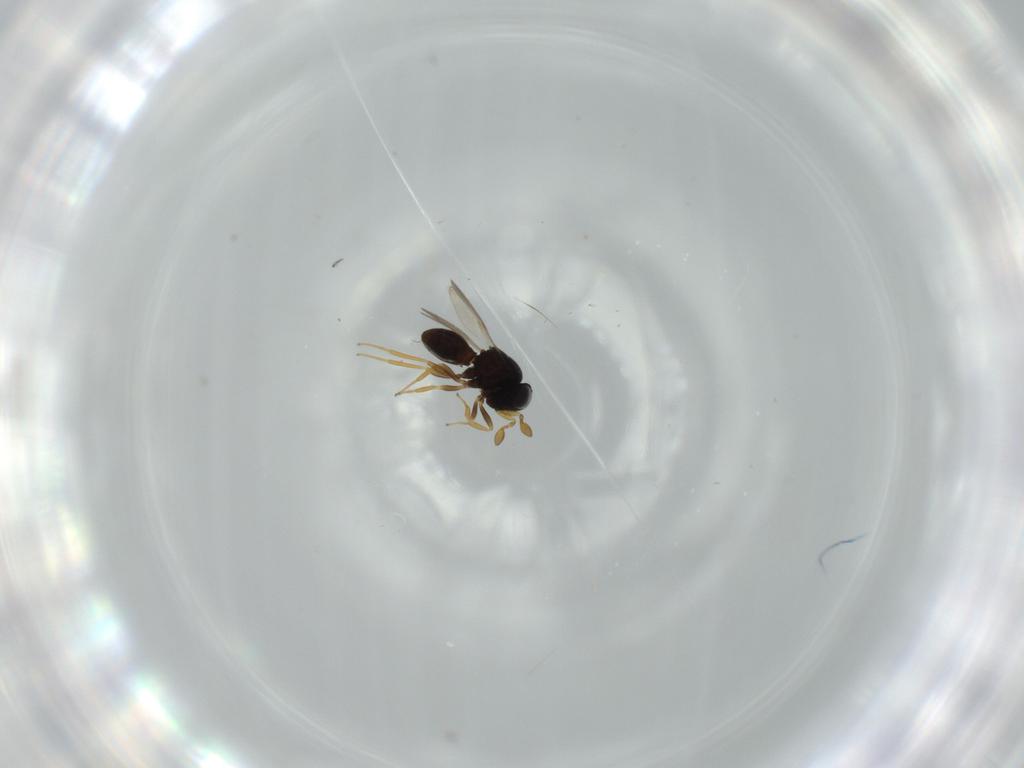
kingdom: Animalia
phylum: Arthropoda
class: Insecta
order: Hymenoptera
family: Scelionidae
